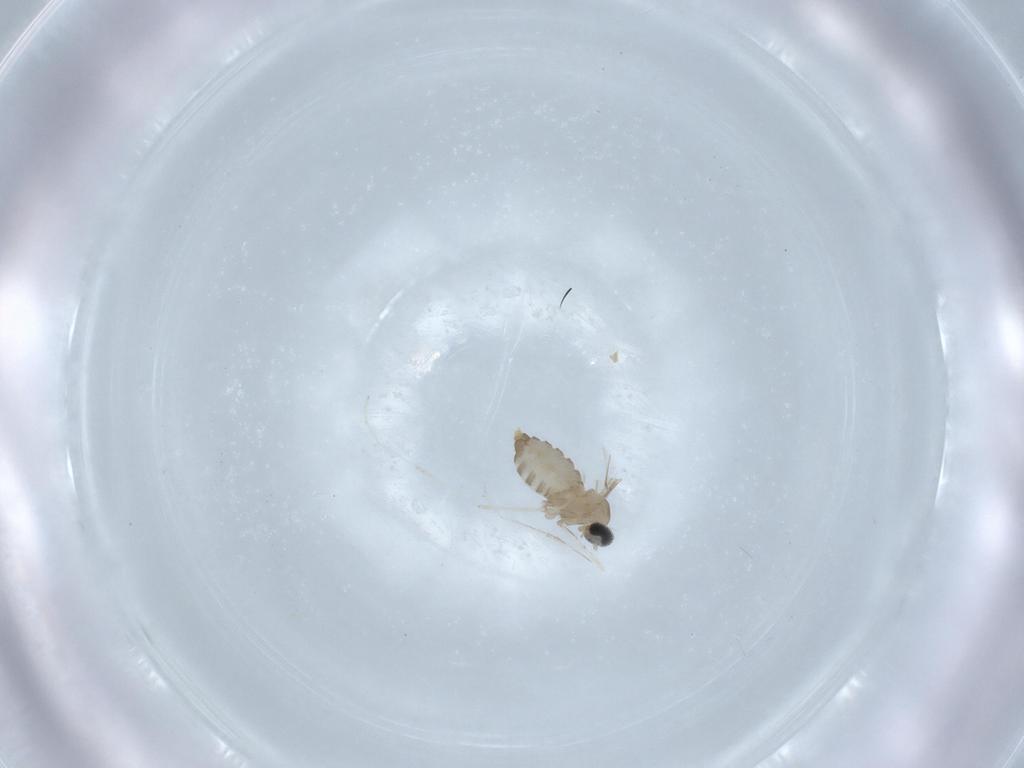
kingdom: Animalia
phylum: Arthropoda
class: Insecta
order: Diptera
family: Cecidomyiidae
